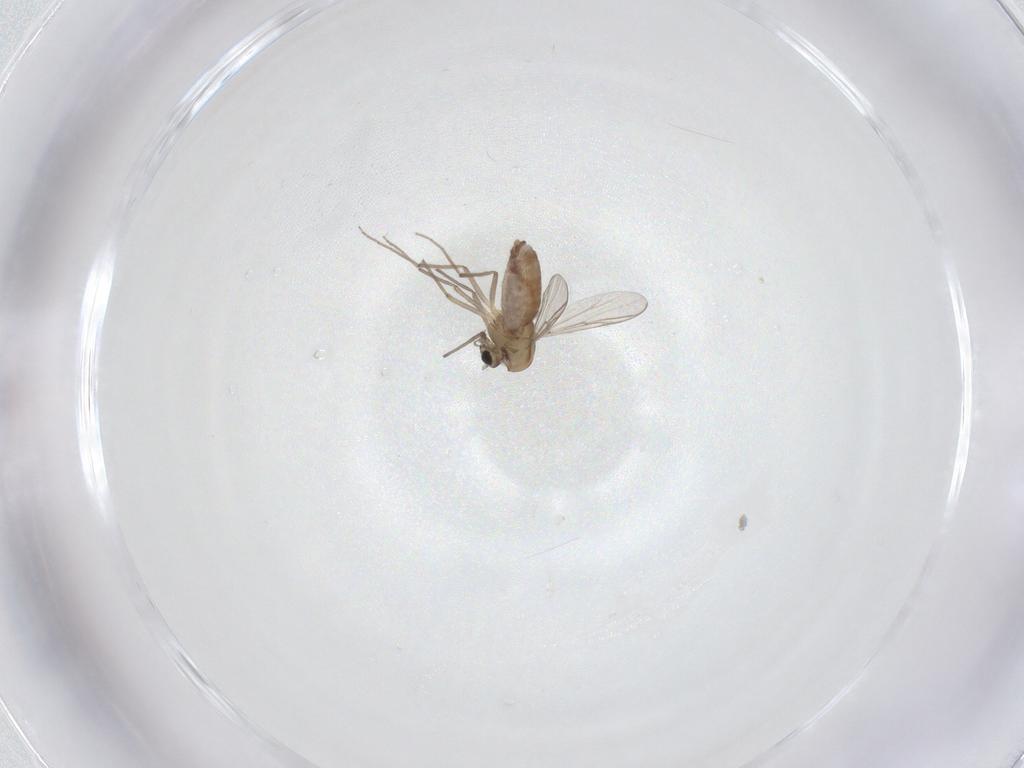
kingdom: Animalia
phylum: Arthropoda
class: Insecta
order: Diptera
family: Chironomidae
